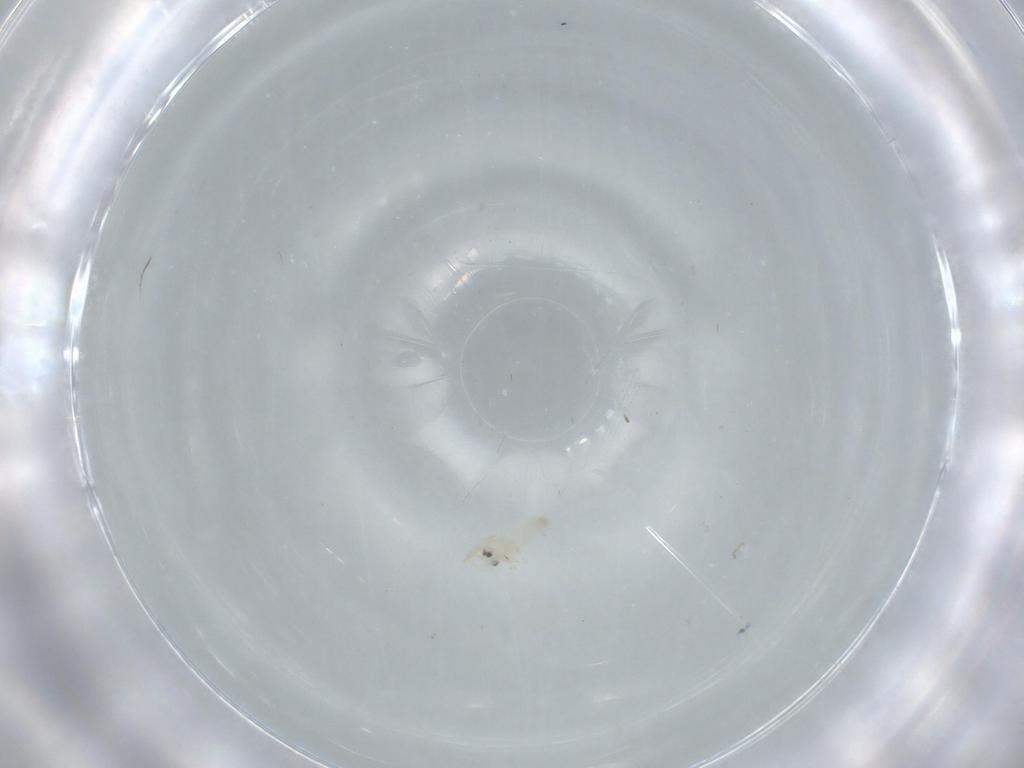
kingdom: Animalia
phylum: Arthropoda
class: Insecta
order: Hemiptera
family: Aleyrodidae
